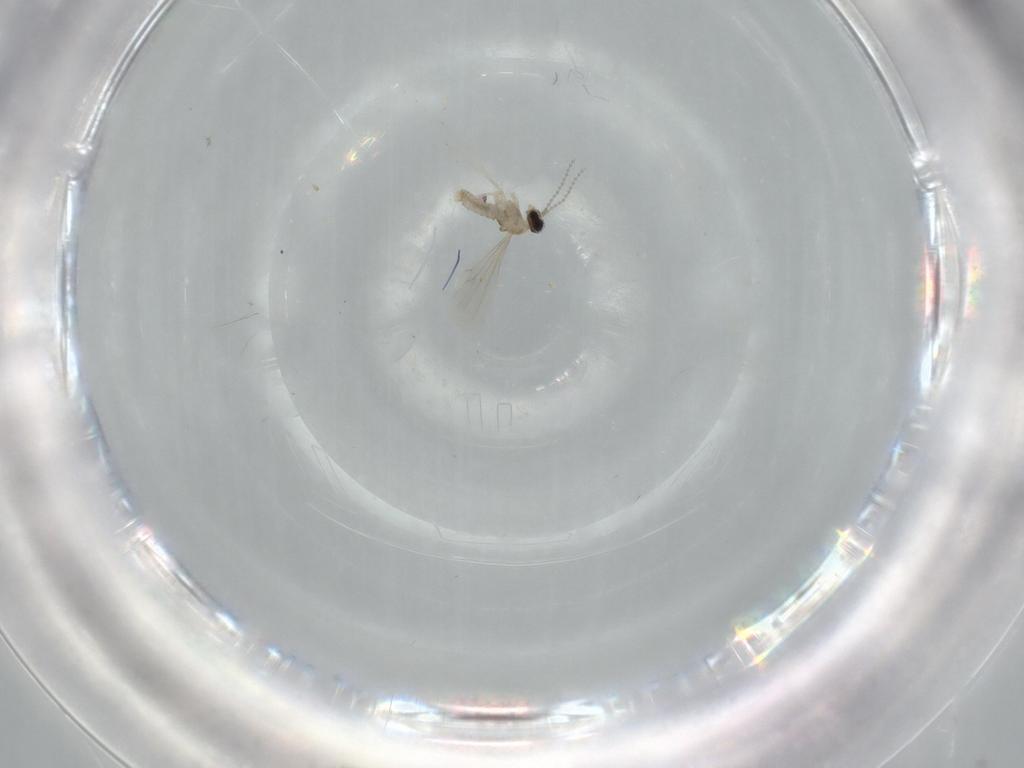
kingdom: Animalia
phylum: Arthropoda
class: Insecta
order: Diptera
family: Cecidomyiidae
